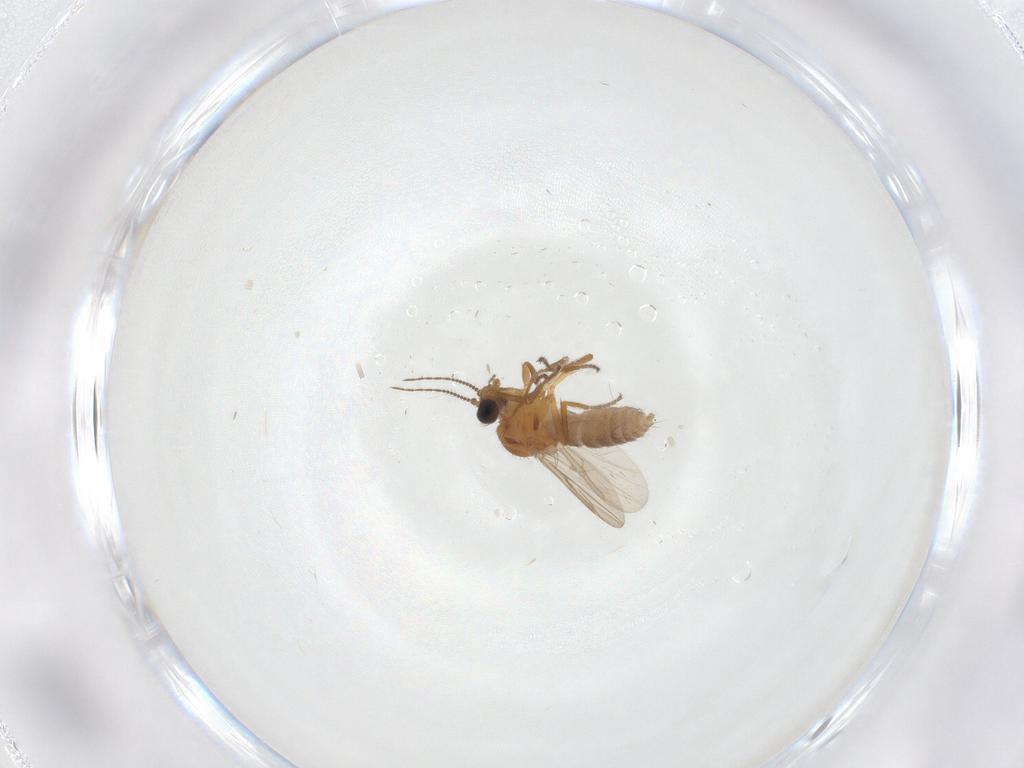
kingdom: Animalia
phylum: Arthropoda
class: Insecta
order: Diptera
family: Ceratopogonidae
